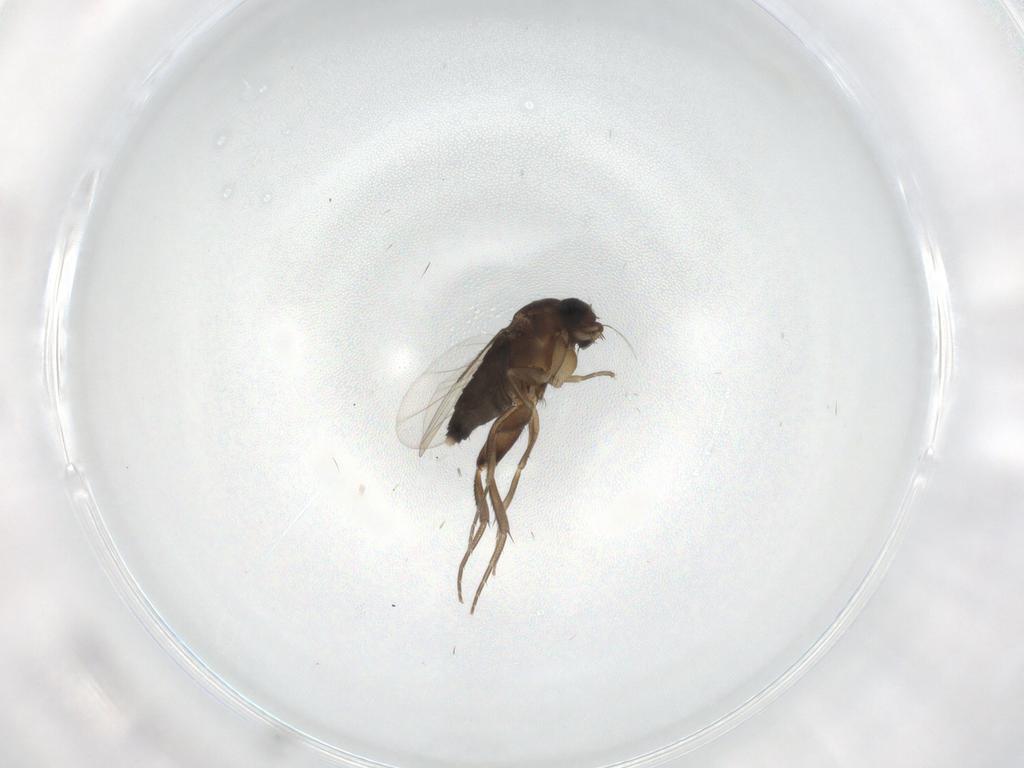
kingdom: Animalia
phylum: Arthropoda
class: Insecta
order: Diptera
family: Phoridae
